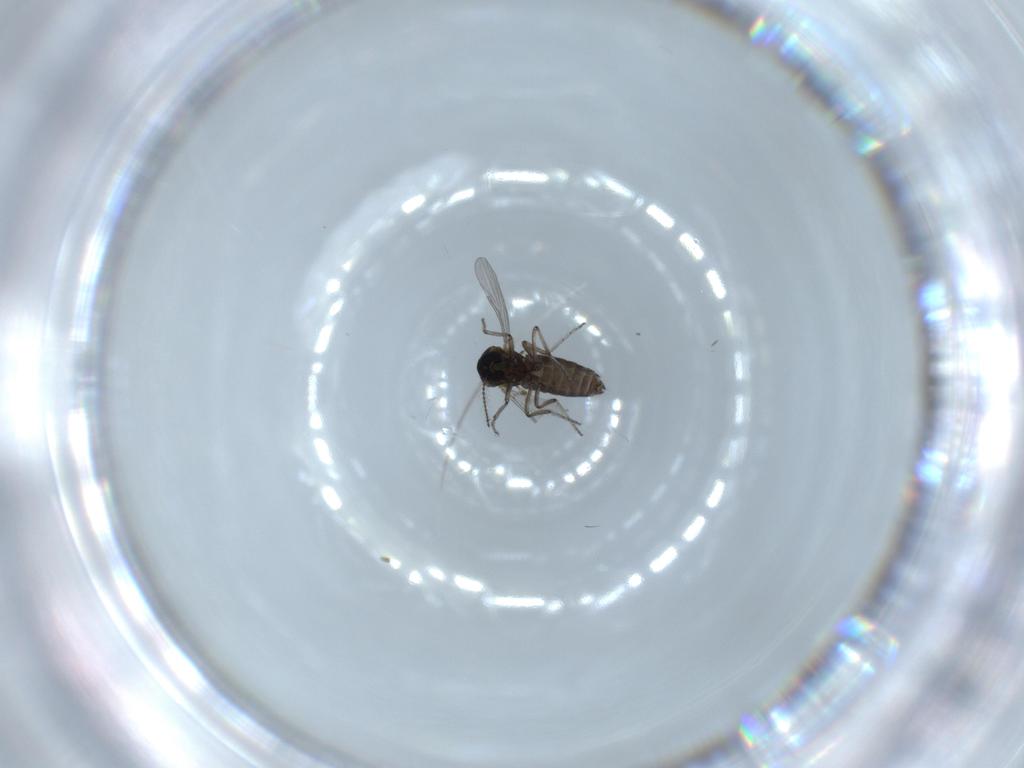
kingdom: Animalia
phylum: Arthropoda
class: Insecta
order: Diptera
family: Ceratopogonidae
